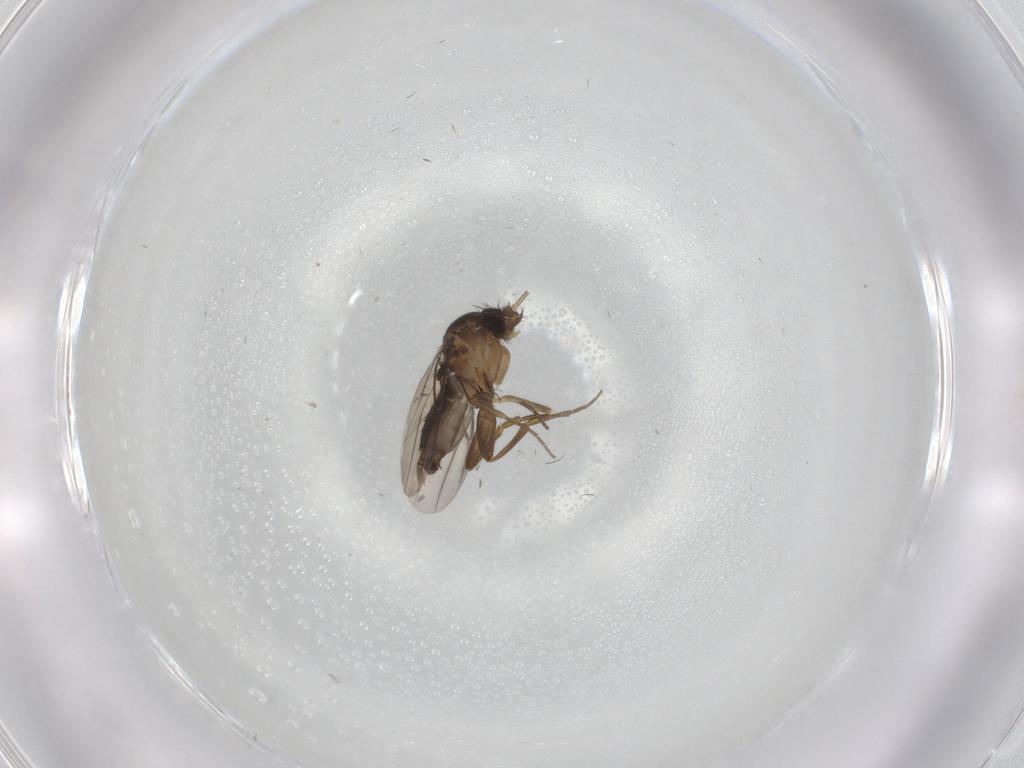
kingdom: Animalia
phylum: Arthropoda
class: Insecta
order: Diptera
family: Phoridae
